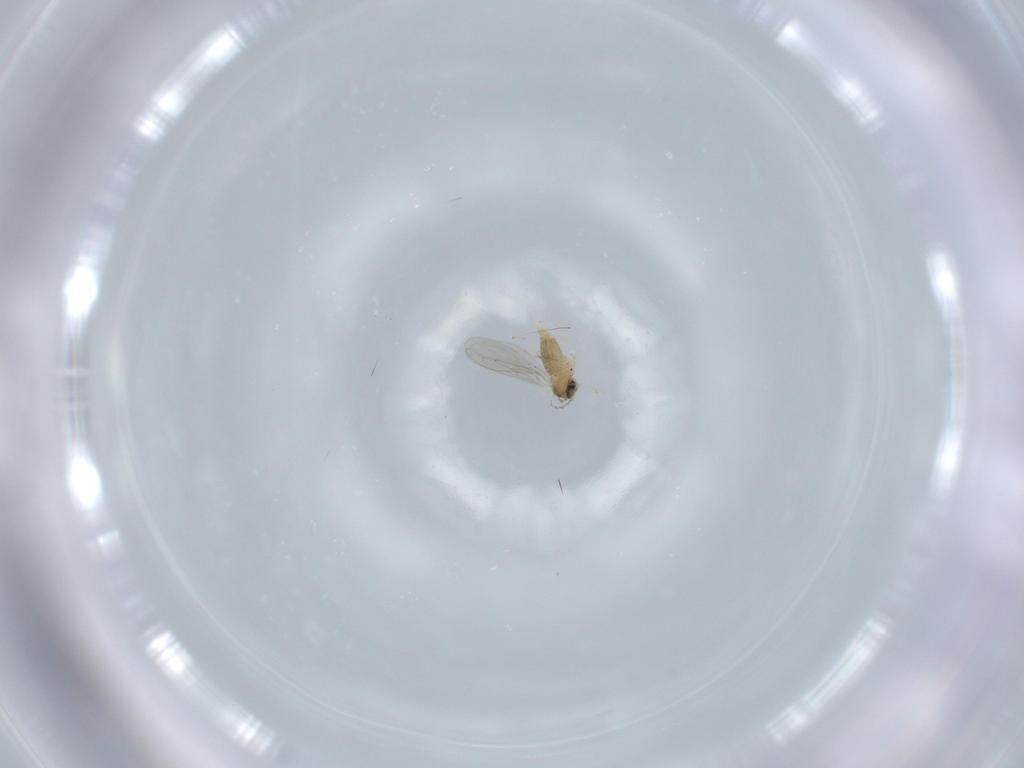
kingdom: Animalia
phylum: Arthropoda
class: Insecta
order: Diptera
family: Cecidomyiidae
